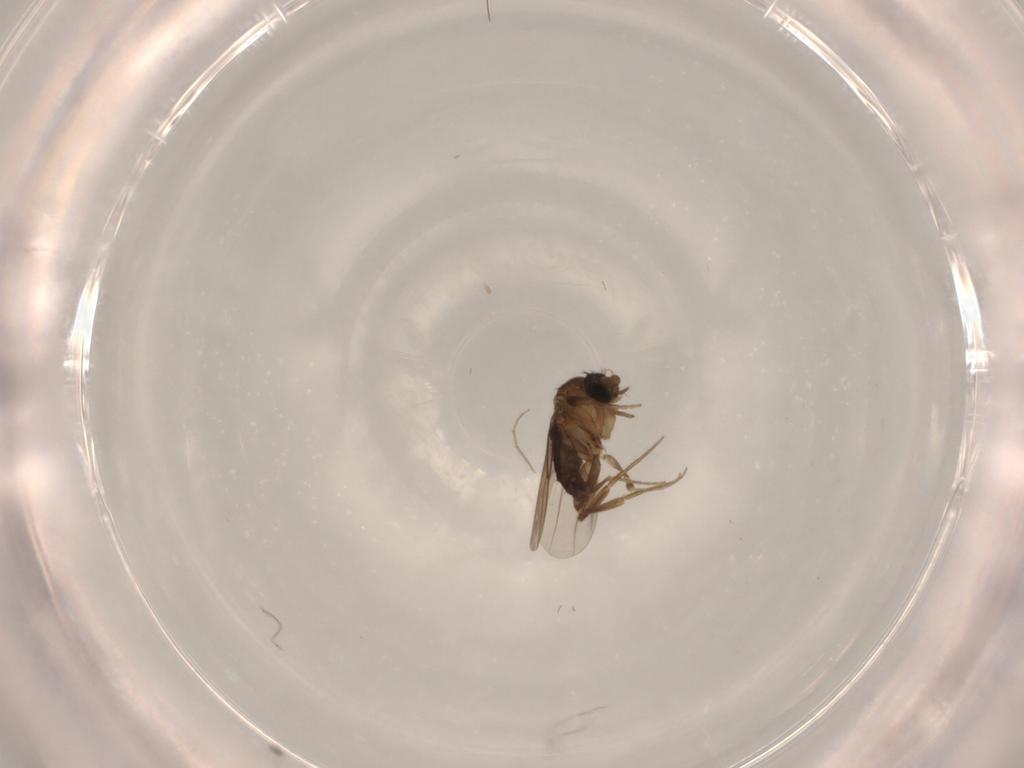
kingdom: Animalia
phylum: Arthropoda
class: Insecta
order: Diptera
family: Phoridae
